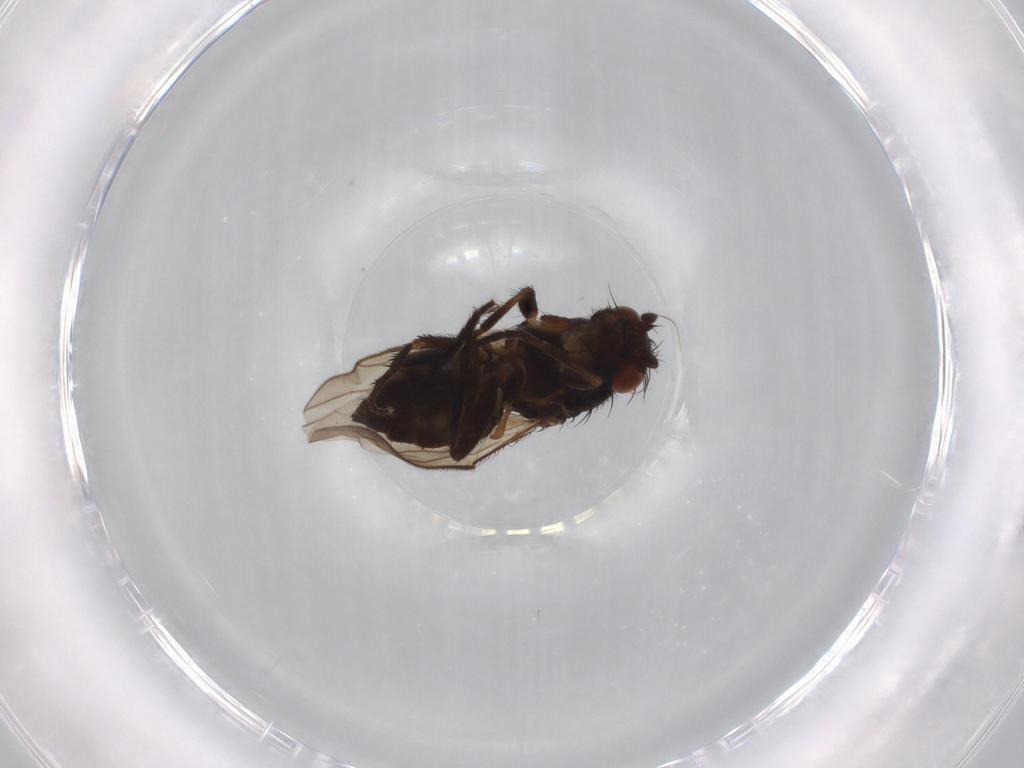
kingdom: Animalia
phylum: Arthropoda
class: Insecta
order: Diptera
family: Sphaeroceridae
